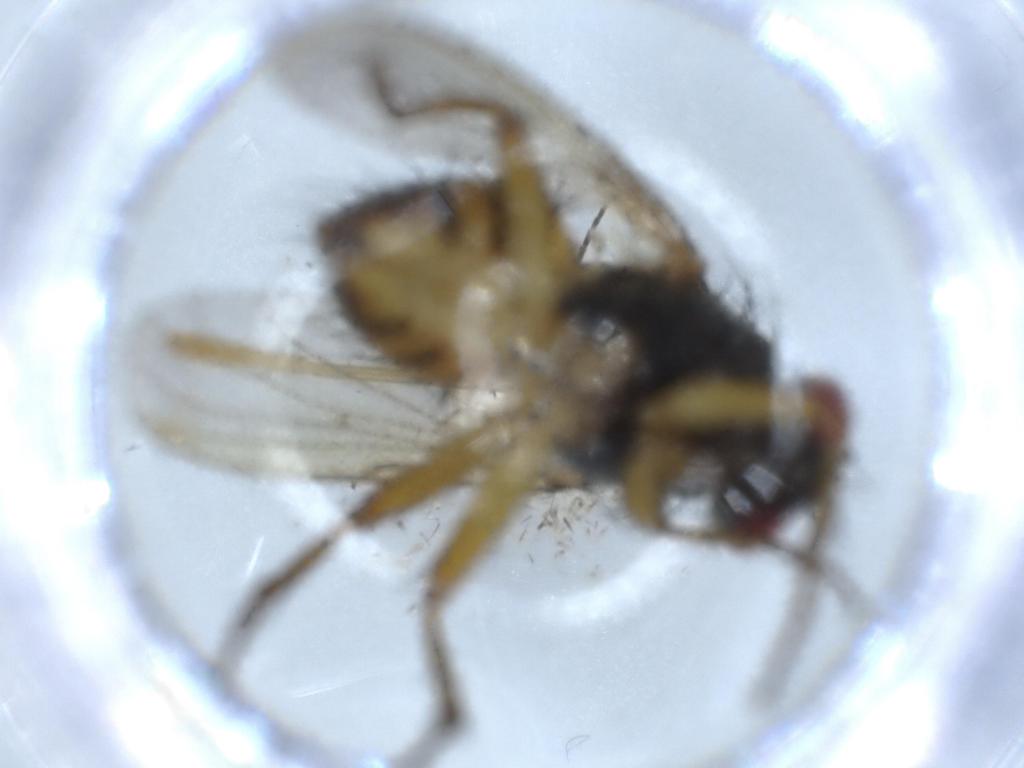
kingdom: Animalia
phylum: Arthropoda
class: Insecta
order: Diptera
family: Muscidae
